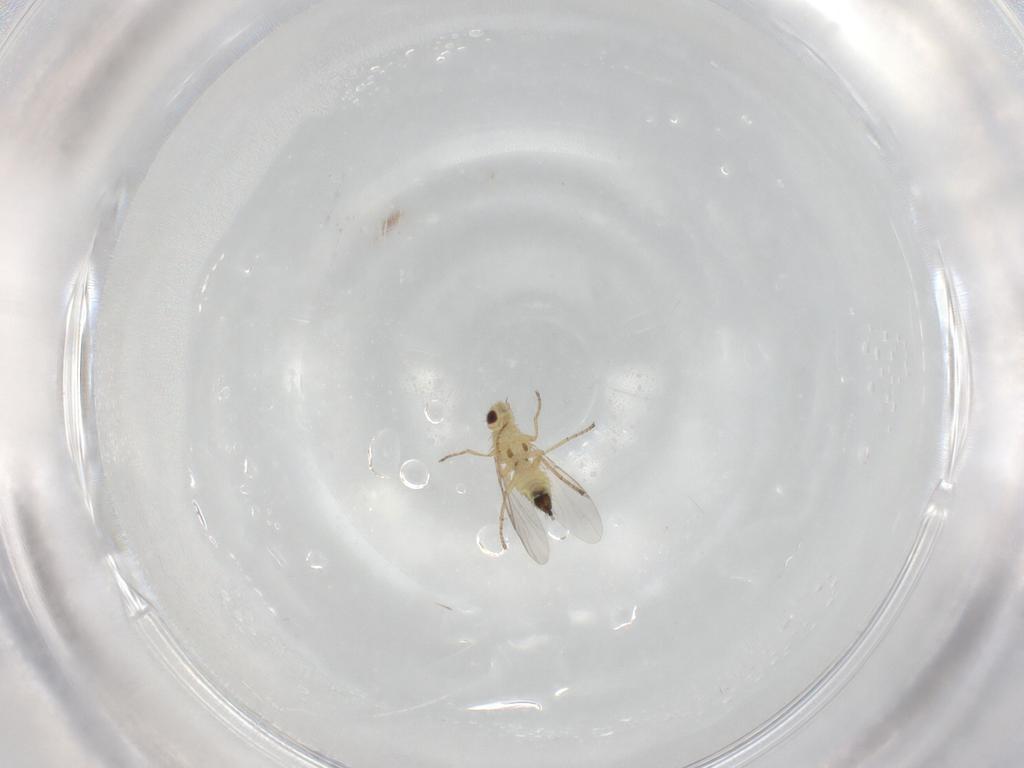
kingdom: Animalia
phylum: Arthropoda
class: Insecta
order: Diptera
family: Agromyzidae
